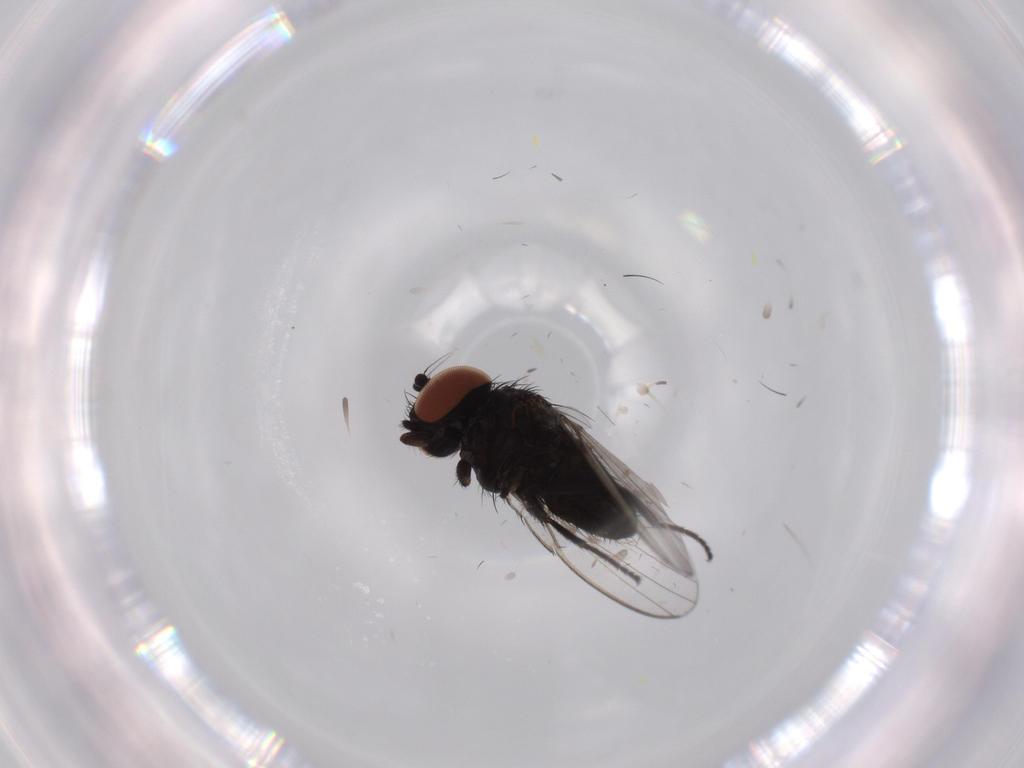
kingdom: Animalia
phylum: Arthropoda
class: Insecta
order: Diptera
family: Milichiidae
